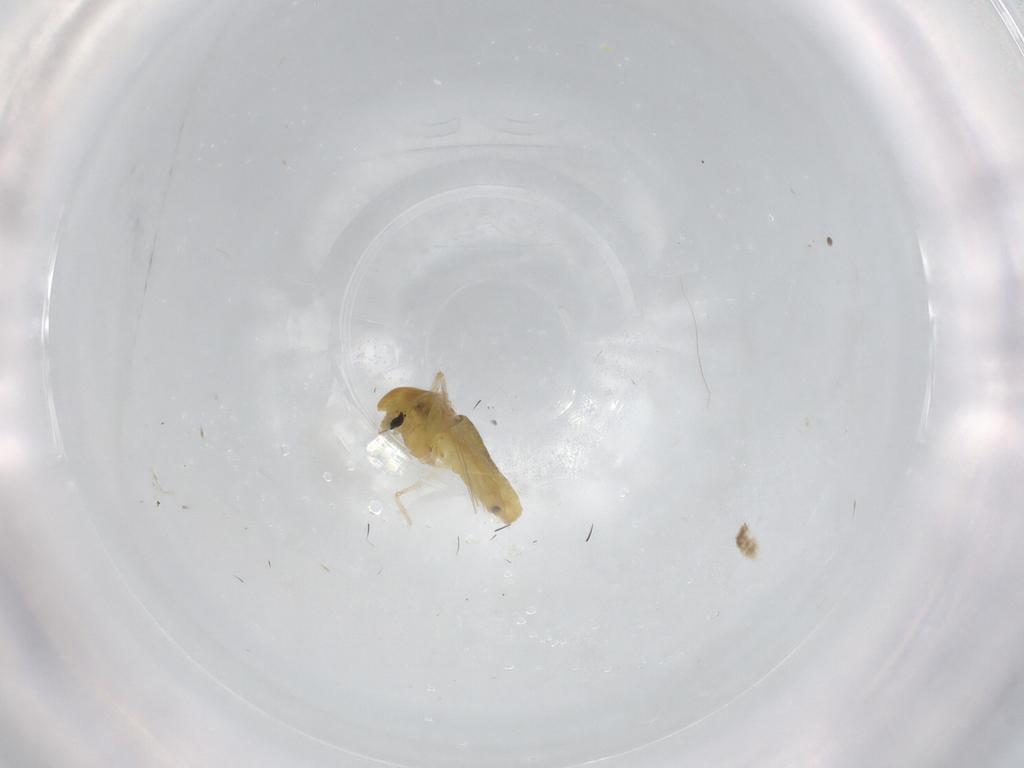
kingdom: Animalia
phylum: Arthropoda
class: Insecta
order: Diptera
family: Chironomidae
